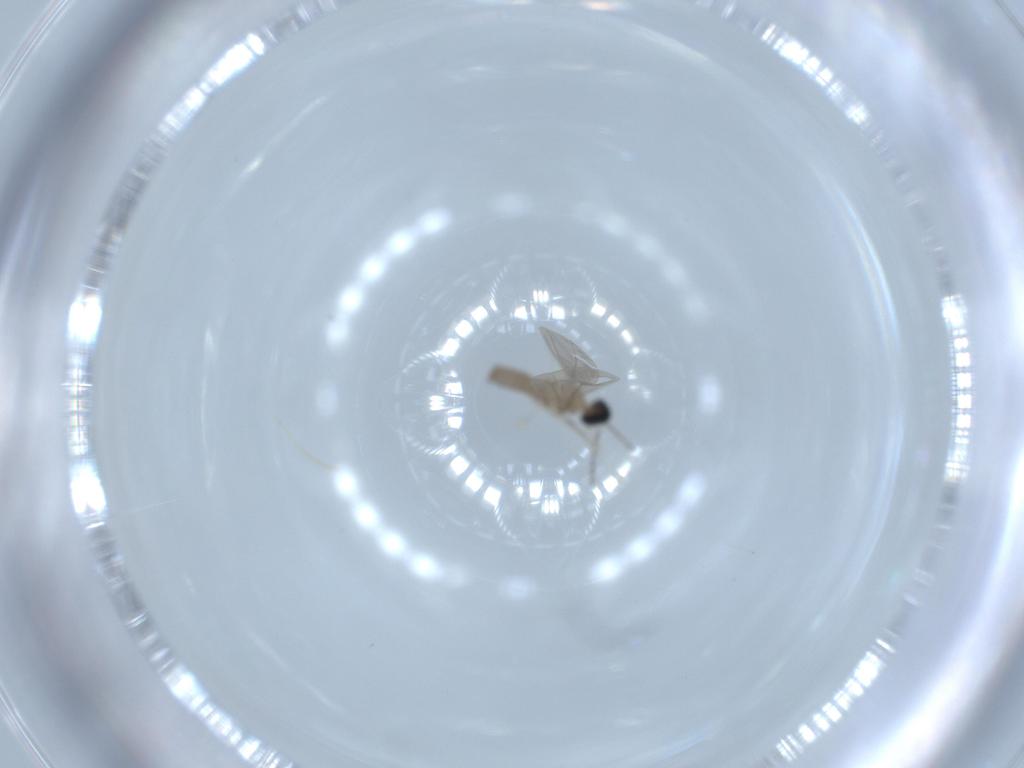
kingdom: Animalia
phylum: Arthropoda
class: Insecta
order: Diptera
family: Cecidomyiidae
